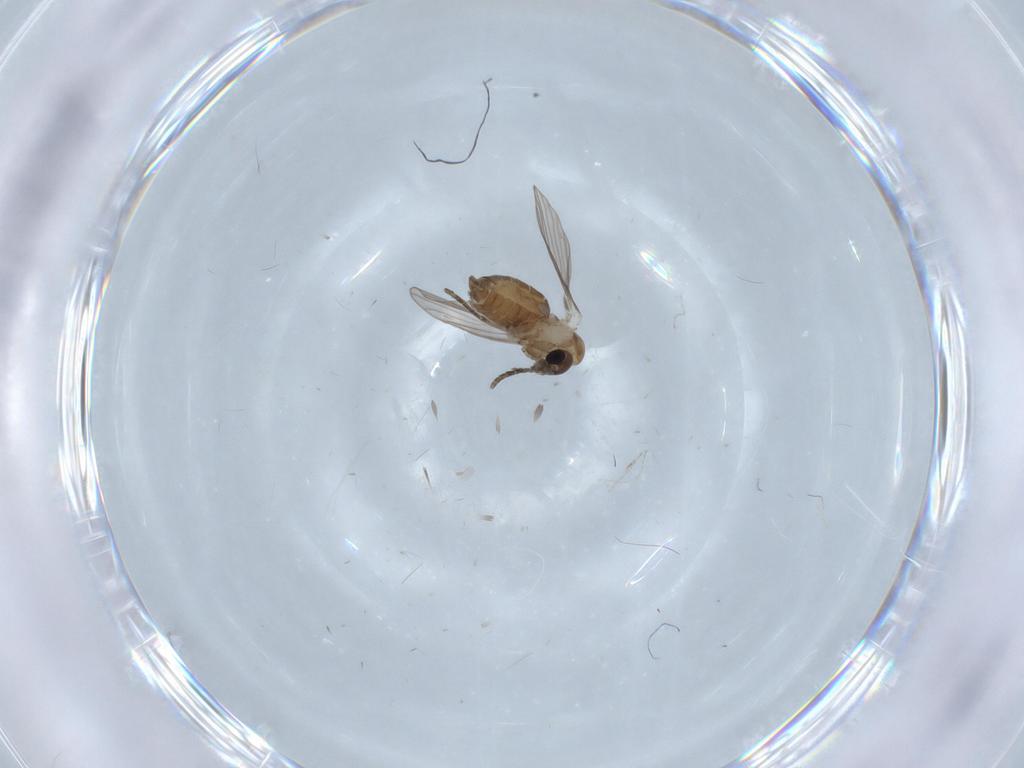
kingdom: Animalia
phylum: Arthropoda
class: Insecta
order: Diptera
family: Psychodidae
